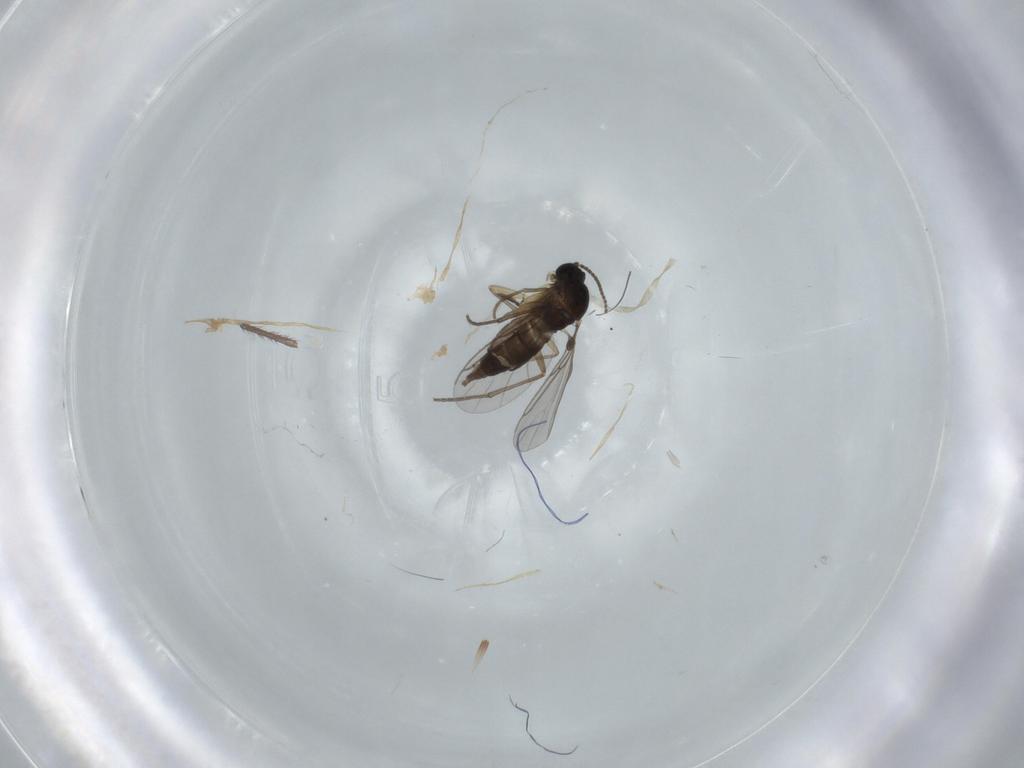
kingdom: Animalia
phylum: Arthropoda
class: Insecta
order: Diptera
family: Sciaridae
